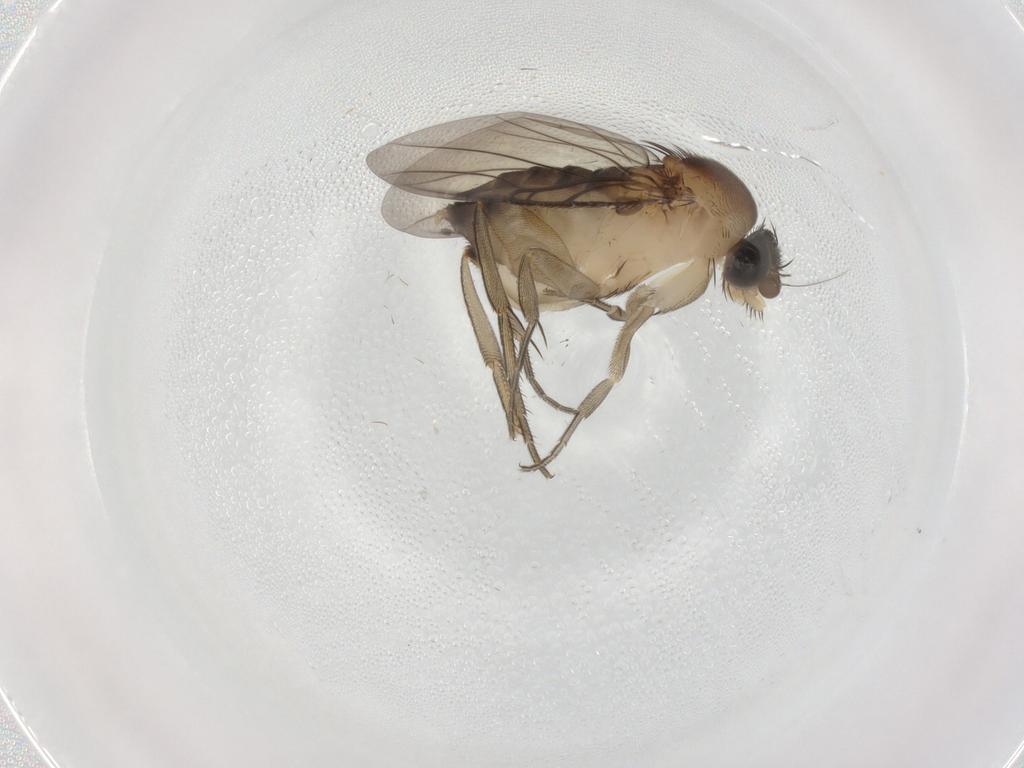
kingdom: Animalia
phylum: Arthropoda
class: Insecta
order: Diptera
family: Phoridae
